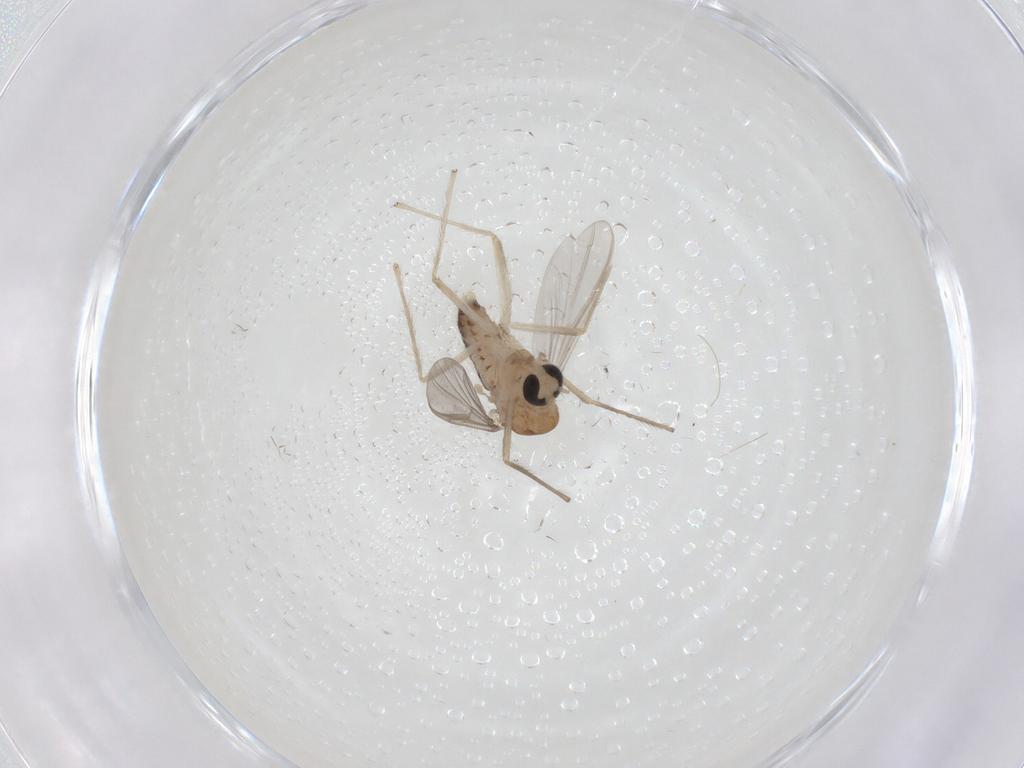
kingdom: Animalia
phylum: Arthropoda
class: Insecta
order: Diptera
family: Chironomidae
